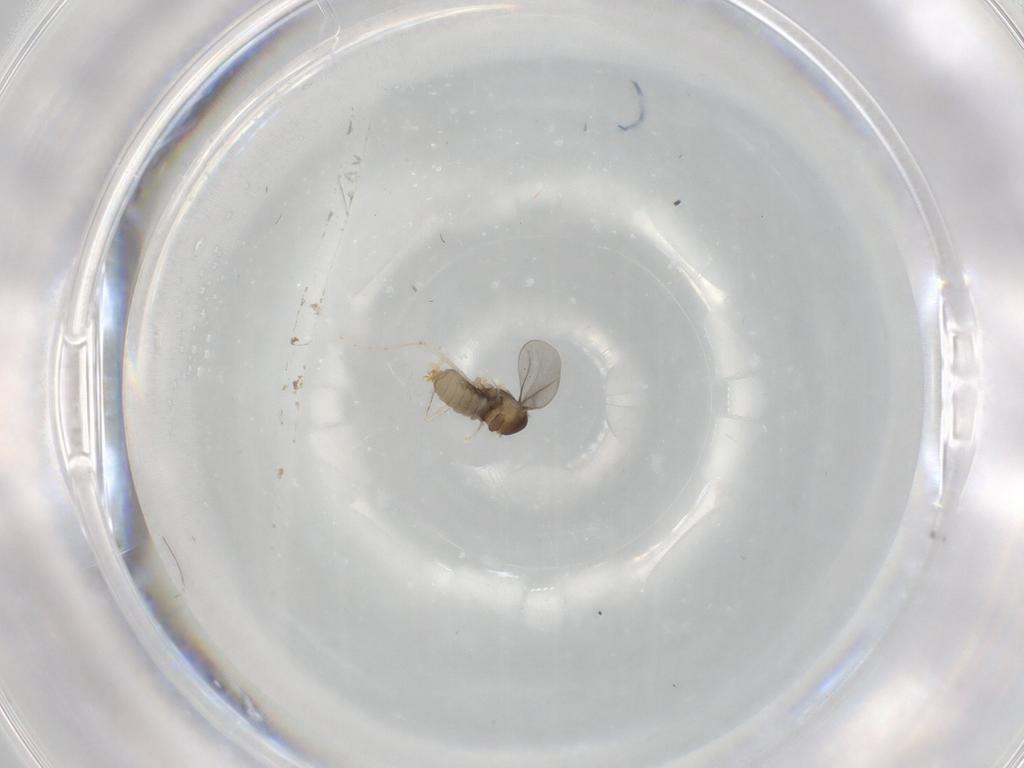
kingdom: Animalia
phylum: Arthropoda
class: Insecta
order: Diptera
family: Cecidomyiidae
